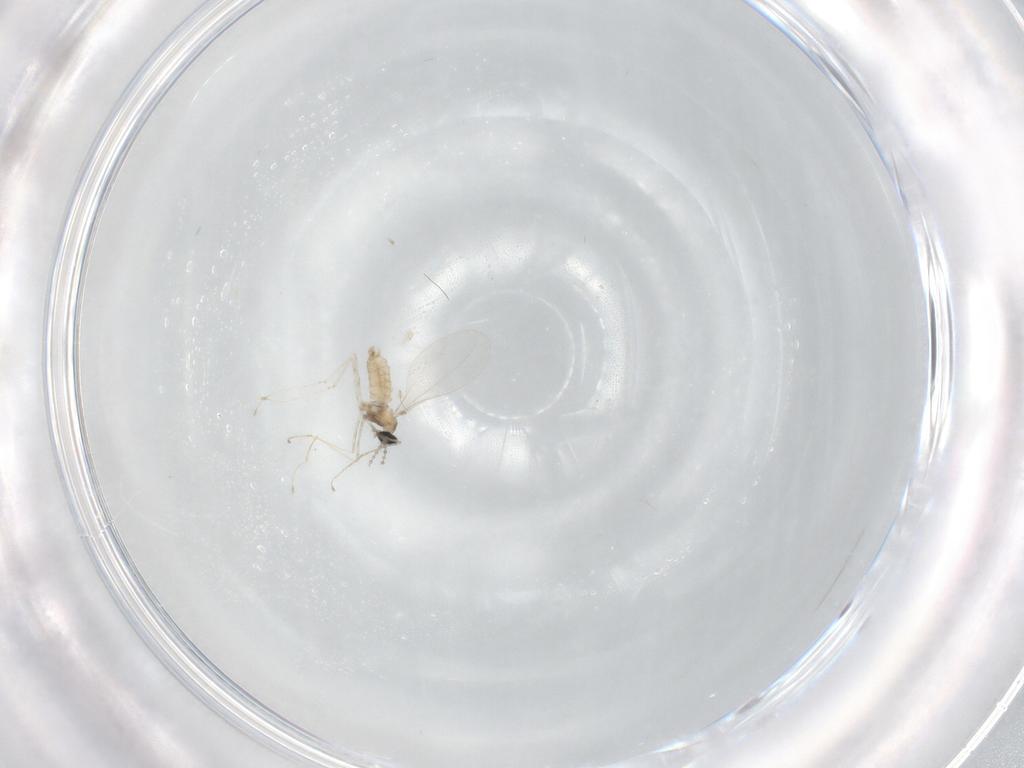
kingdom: Animalia
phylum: Arthropoda
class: Insecta
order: Diptera
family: Cecidomyiidae
